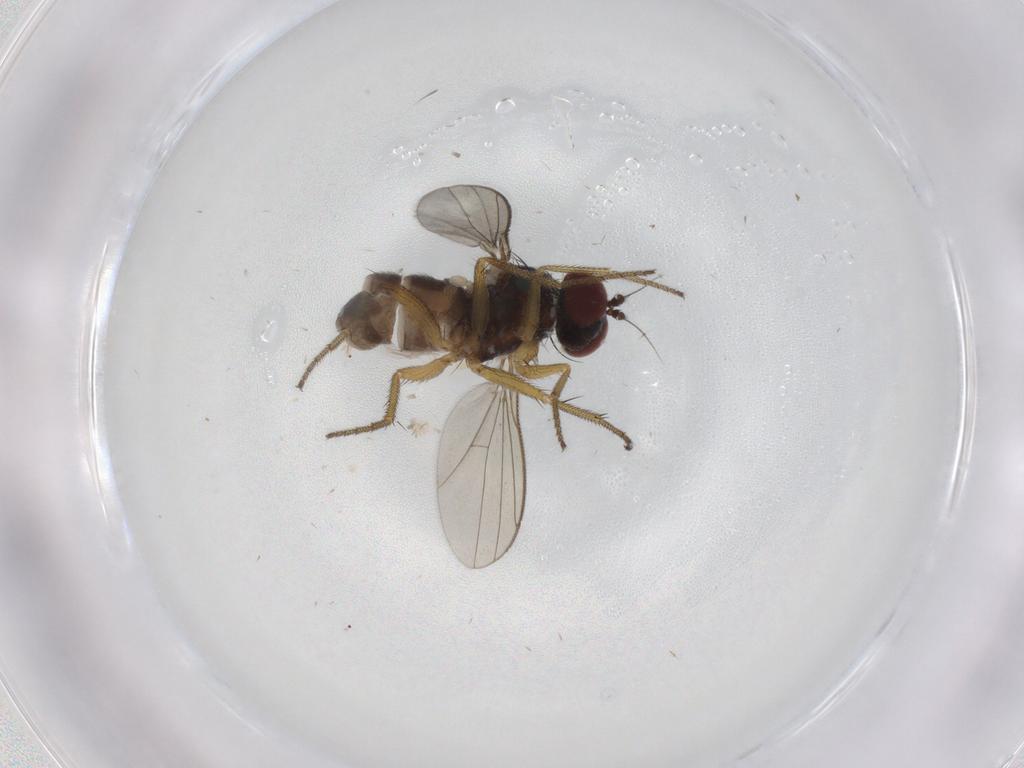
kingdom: Animalia
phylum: Arthropoda
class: Insecta
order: Diptera
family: Dolichopodidae
